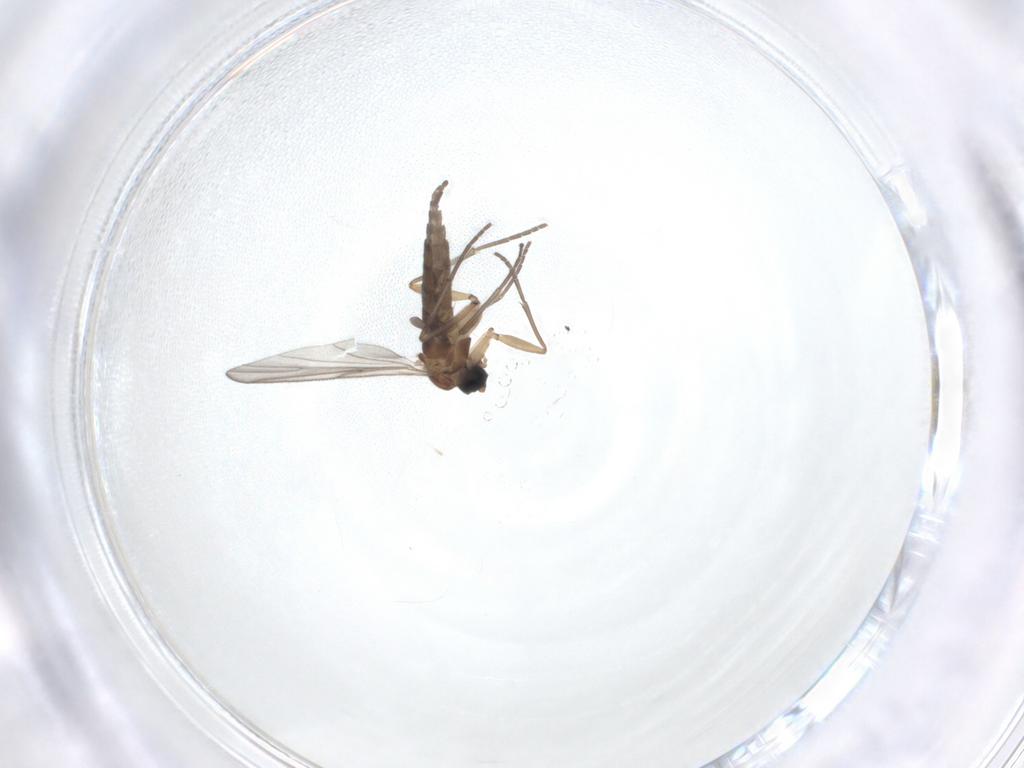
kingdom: Animalia
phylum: Arthropoda
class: Insecta
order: Diptera
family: Sciaridae
